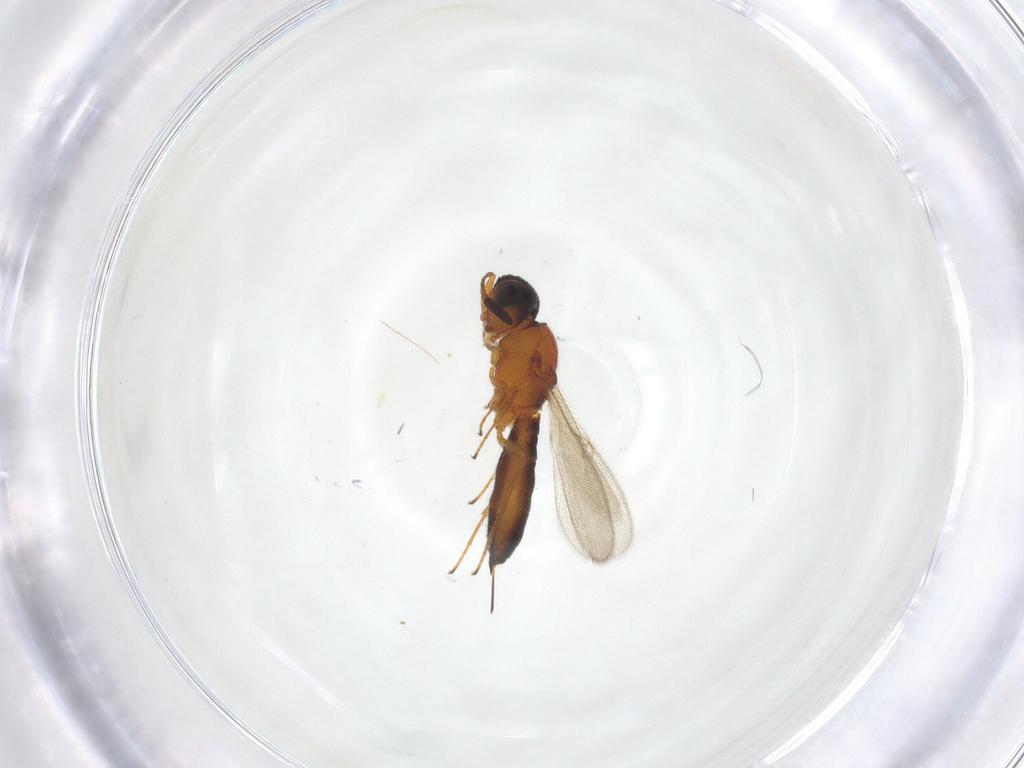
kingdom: Animalia
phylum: Arthropoda
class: Insecta
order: Hymenoptera
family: Scelionidae
